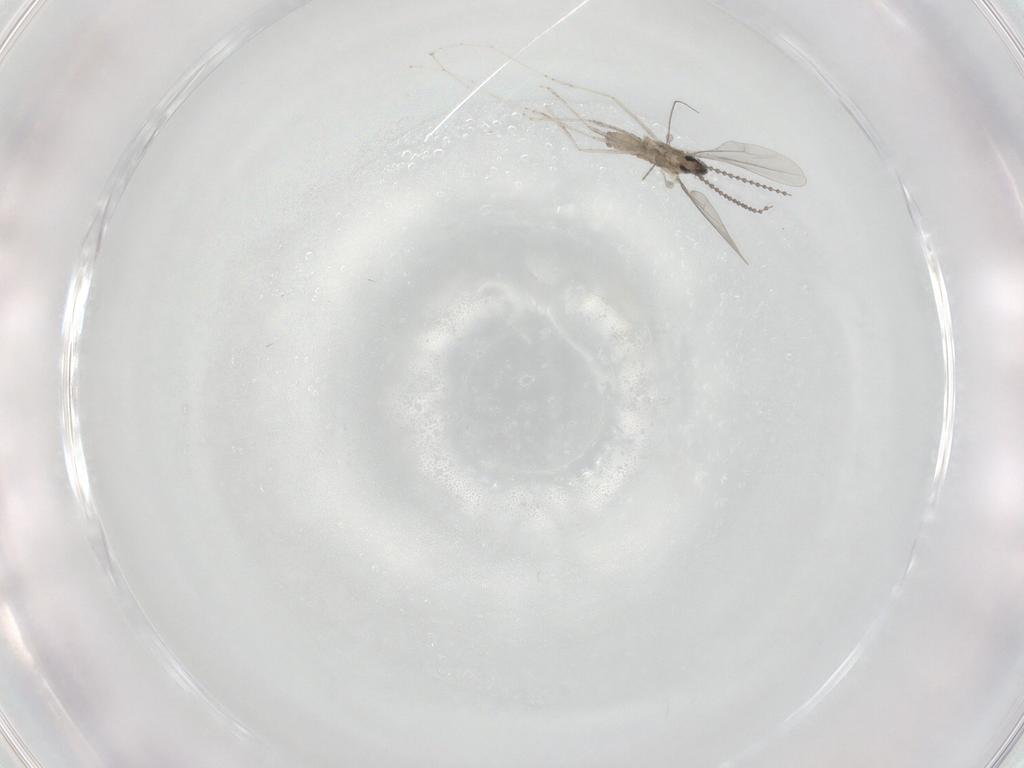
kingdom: Animalia
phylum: Arthropoda
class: Insecta
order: Diptera
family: Cecidomyiidae
